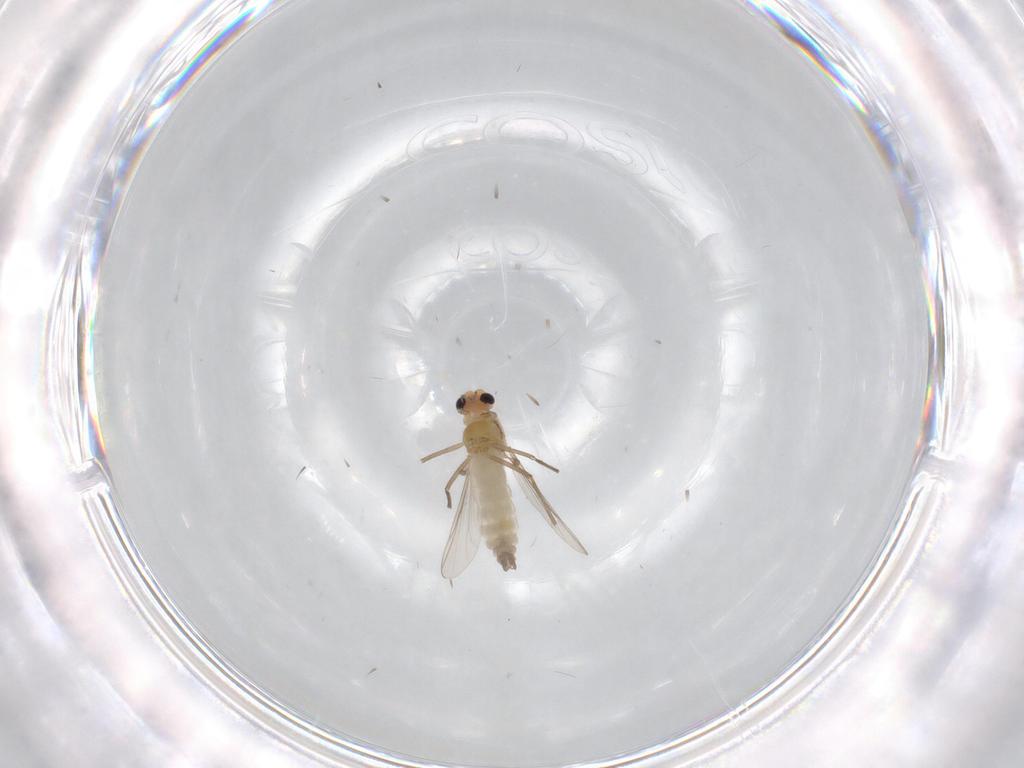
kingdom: Animalia
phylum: Arthropoda
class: Insecta
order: Diptera
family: Chironomidae
